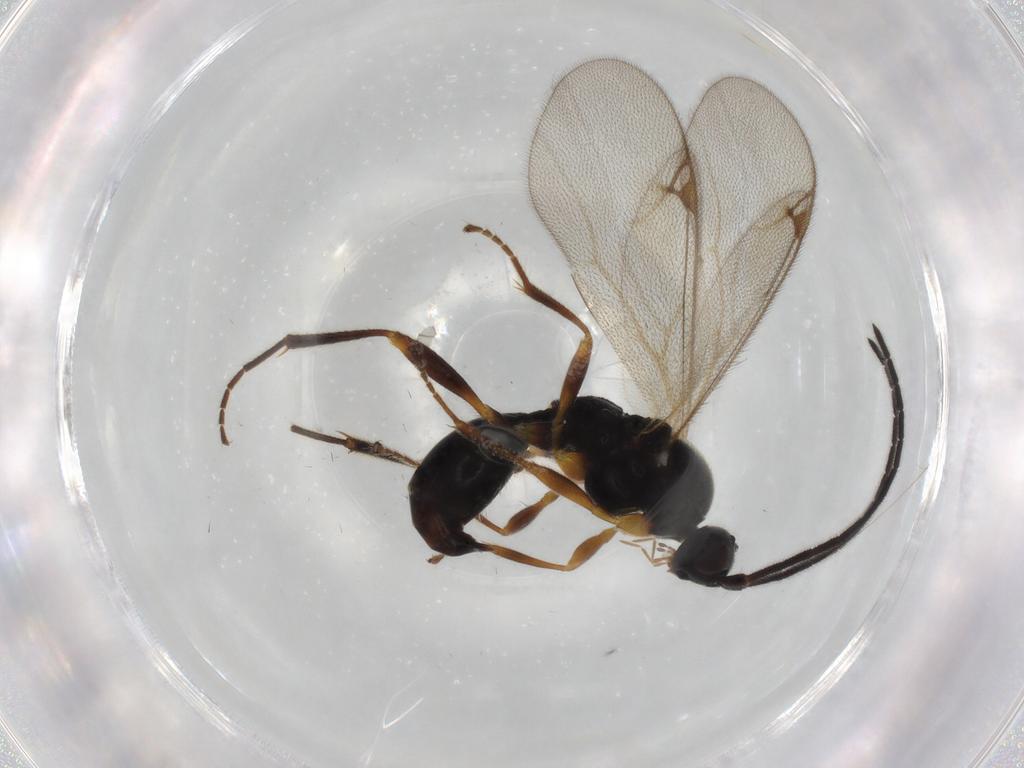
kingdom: Animalia
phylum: Arthropoda
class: Insecta
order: Hymenoptera
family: Proctotrupidae
